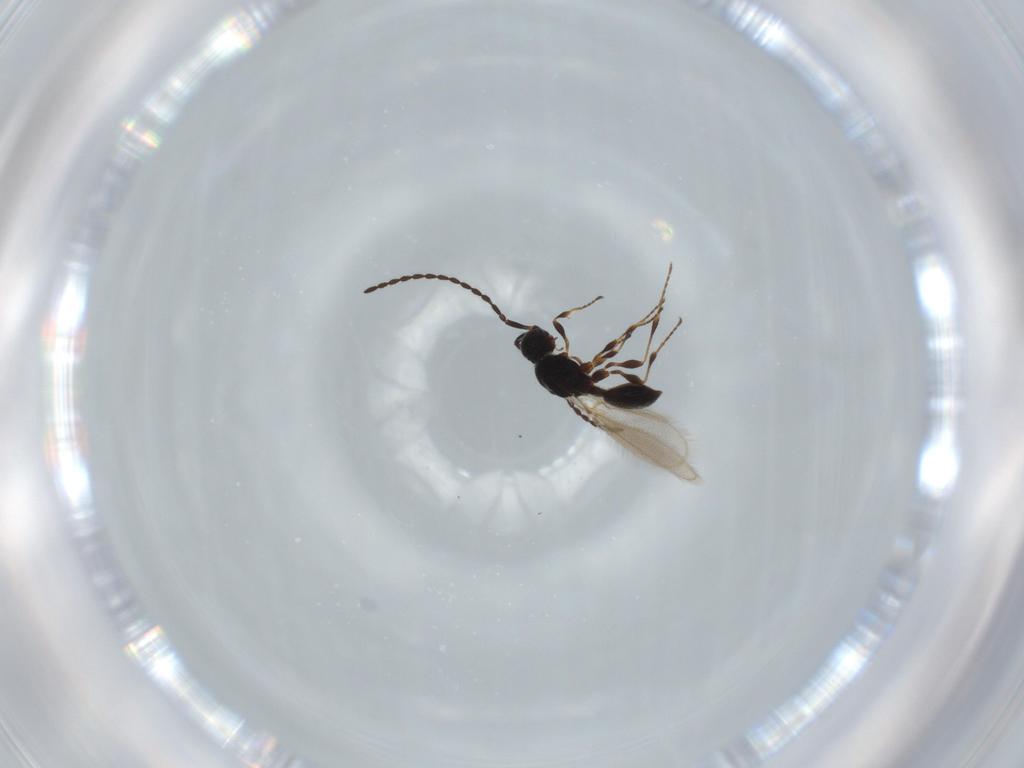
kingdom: Animalia
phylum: Arthropoda
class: Insecta
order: Hymenoptera
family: Diapriidae
